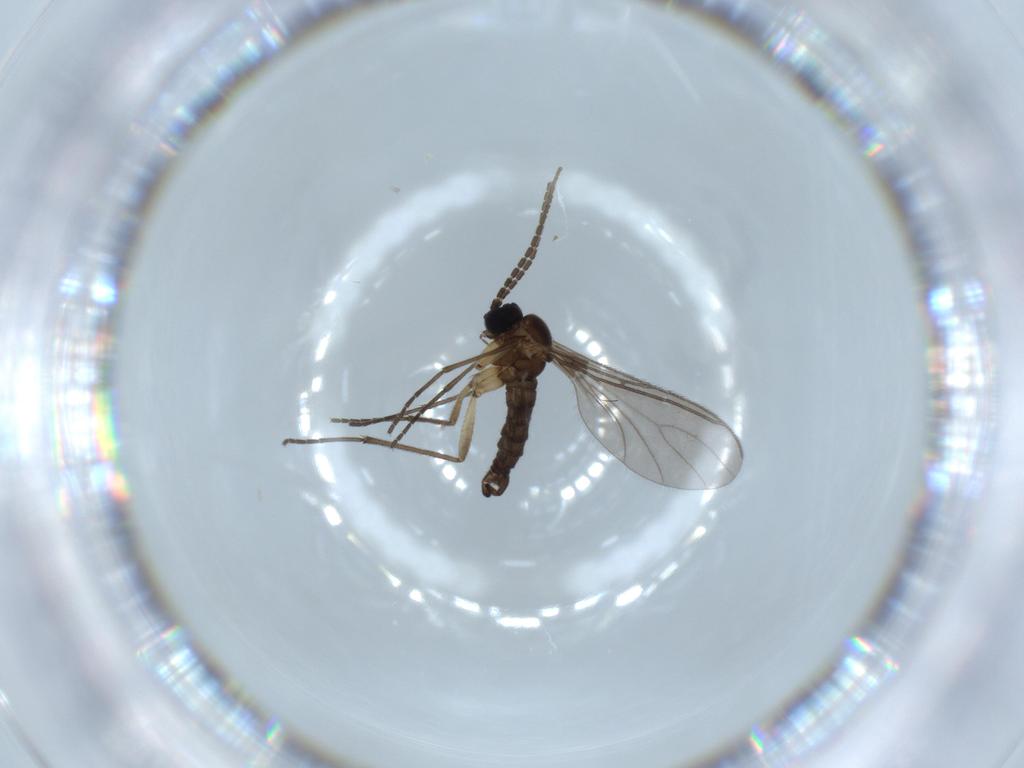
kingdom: Animalia
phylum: Arthropoda
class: Insecta
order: Diptera
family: Sciaridae
